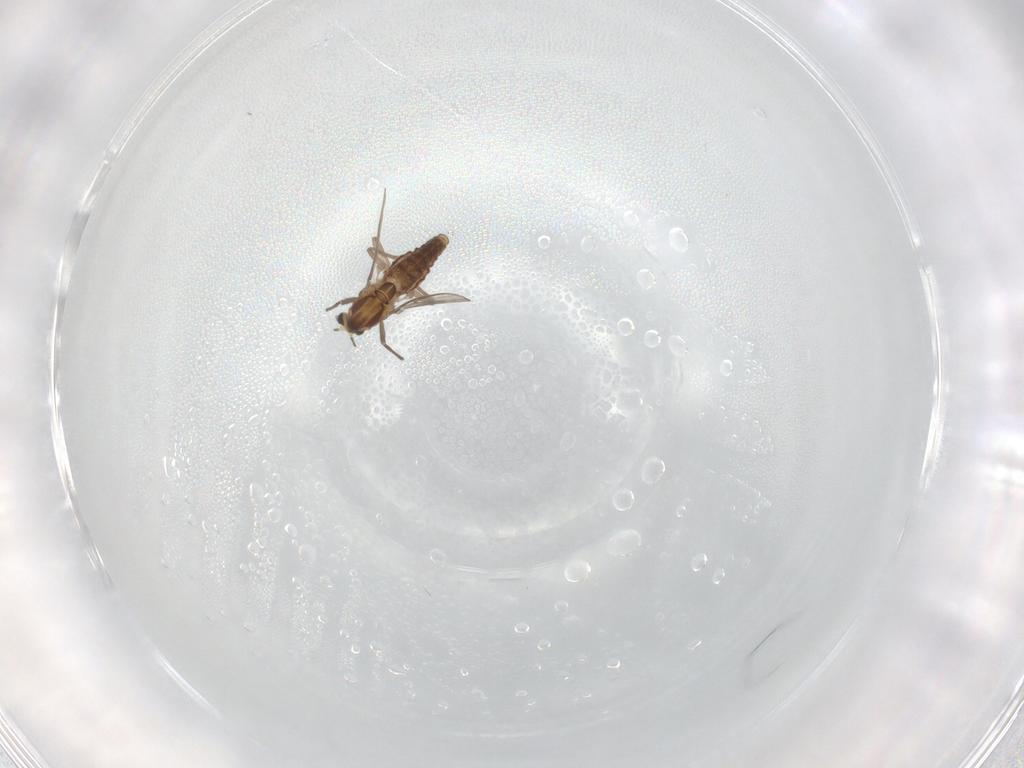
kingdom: Animalia
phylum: Arthropoda
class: Insecta
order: Diptera
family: Chironomidae
